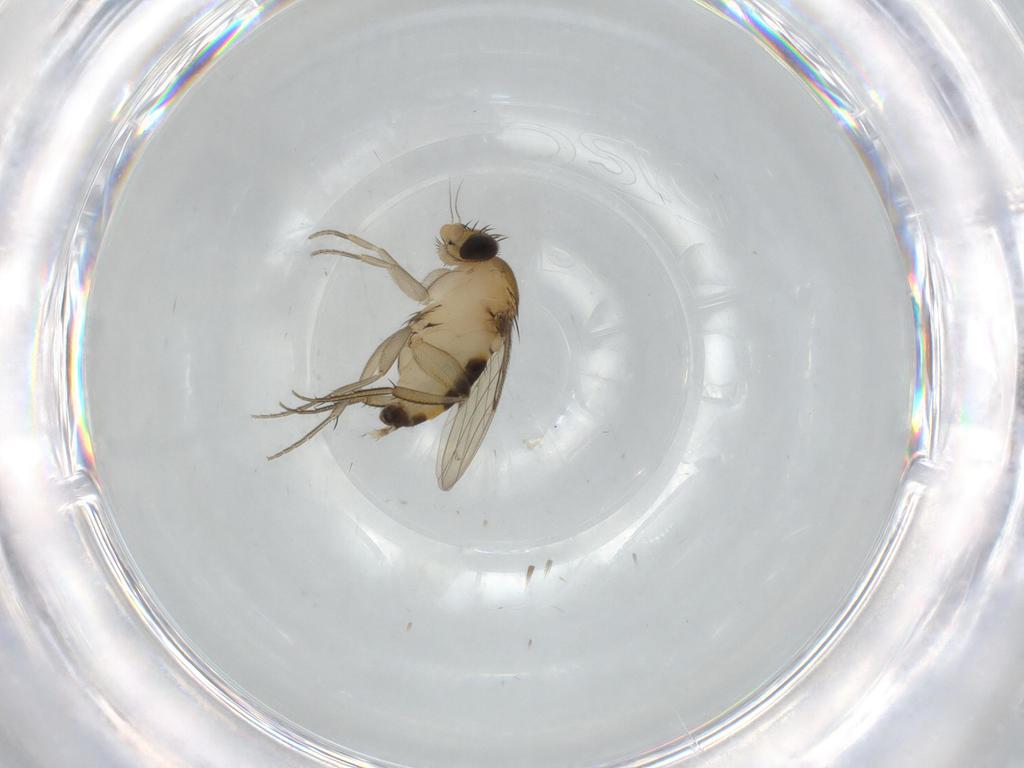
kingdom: Animalia
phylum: Arthropoda
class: Insecta
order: Diptera
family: Phoridae
